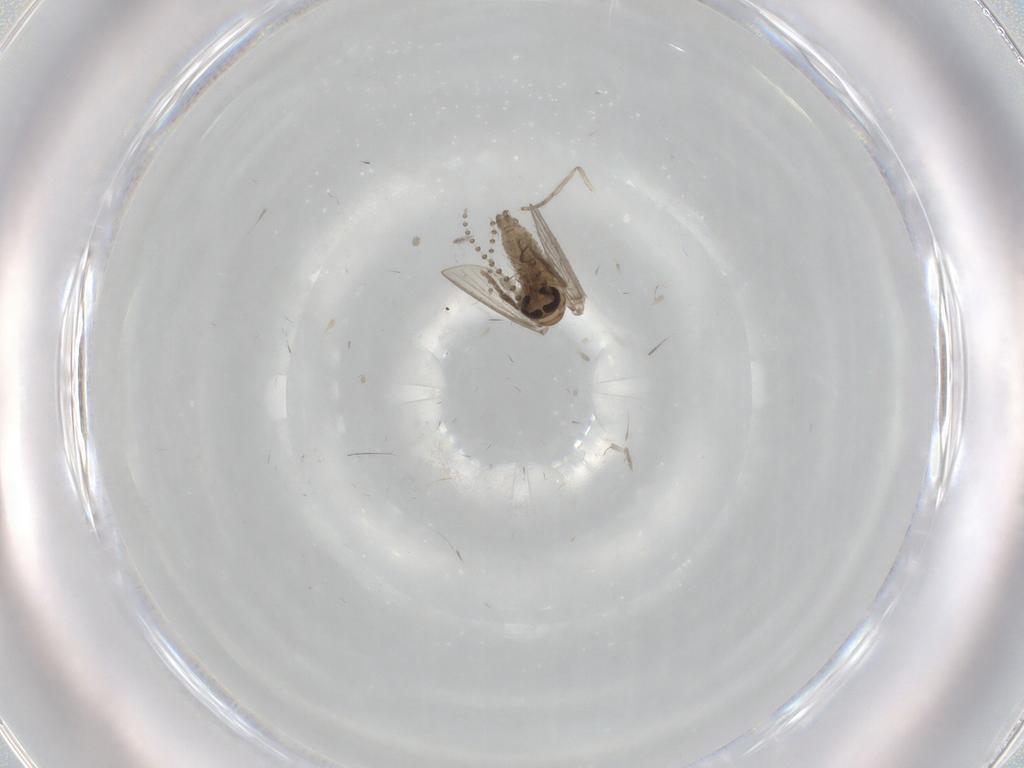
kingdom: Animalia
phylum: Arthropoda
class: Insecta
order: Diptera
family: Psychodidae
